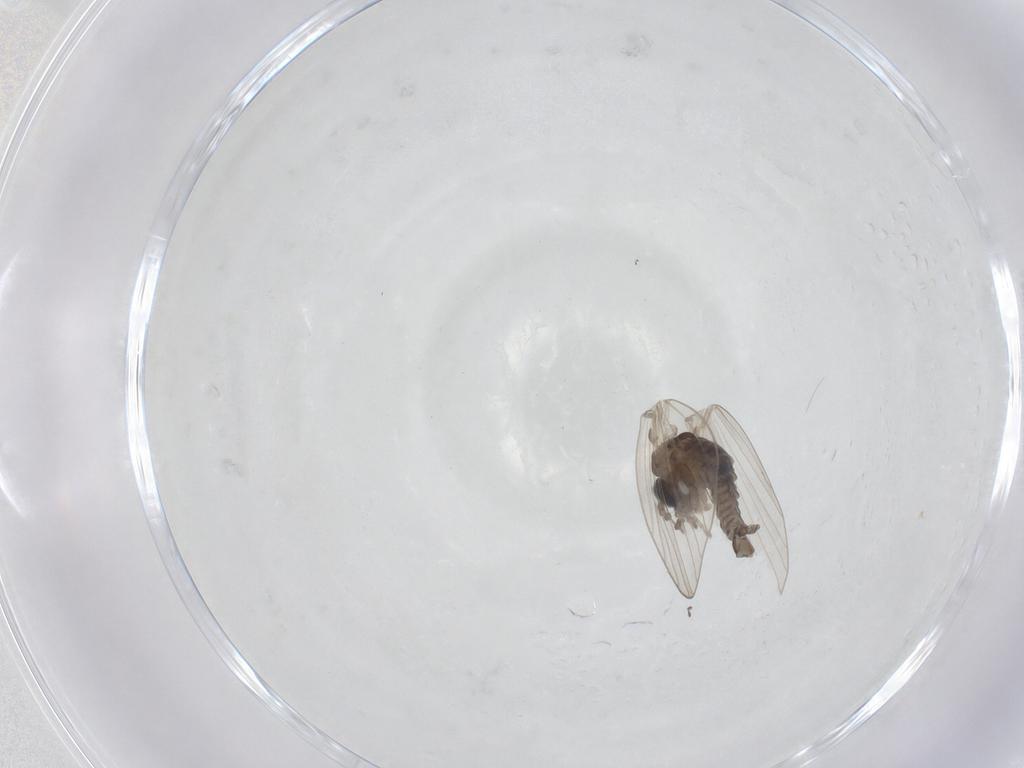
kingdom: Animalia
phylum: Arthropoda
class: Insecta
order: Diptera
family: Psychodidae
